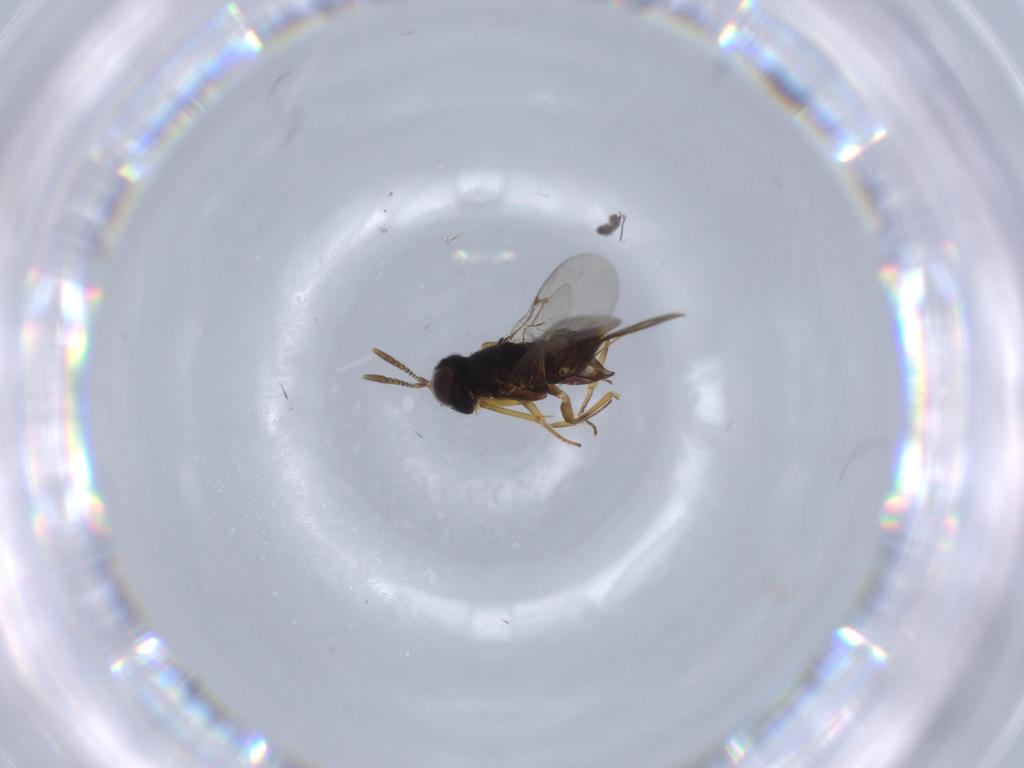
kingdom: Animalia
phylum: Arthropoda
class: Insecta
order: Hymenoptera
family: Encyrtidae
